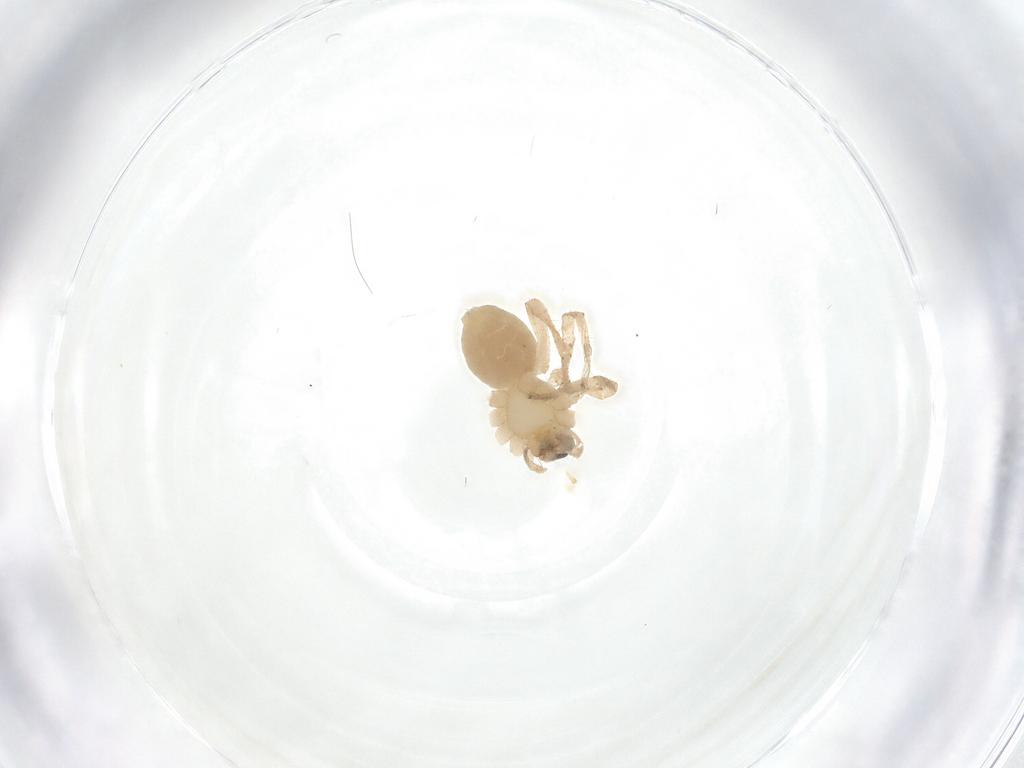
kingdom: Animalia
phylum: Arthropoda
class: Arachnida
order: Araneae
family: Anyphaenidae
